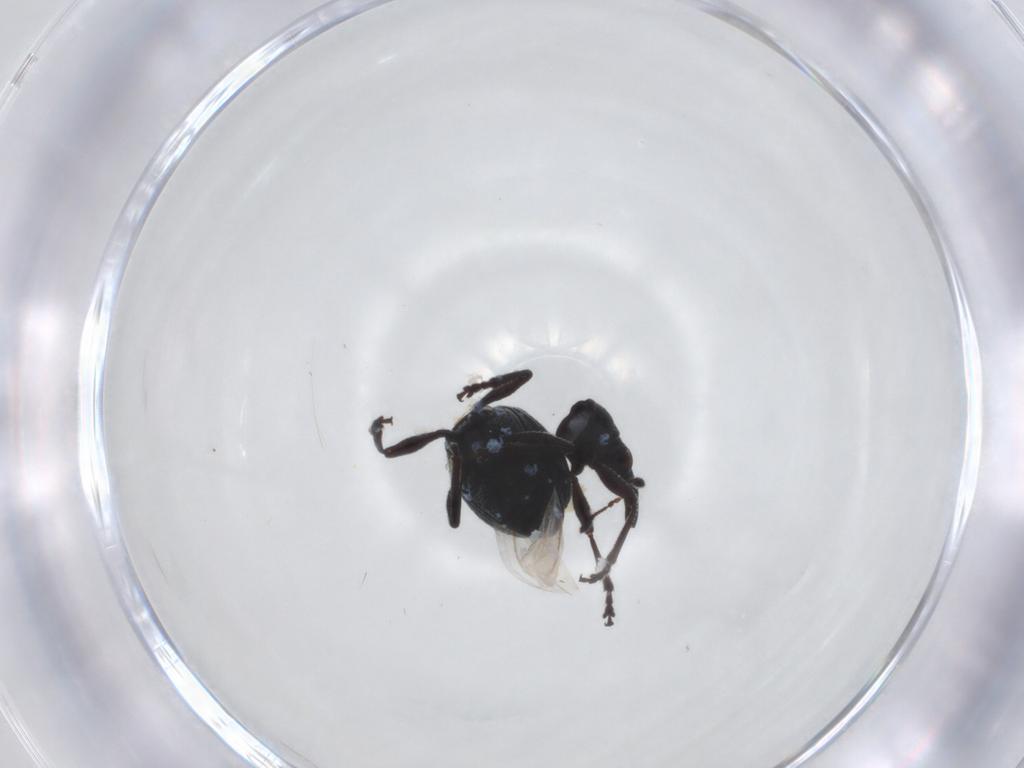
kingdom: Animalia
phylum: Arthropoda
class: Insecta
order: Coleoptera
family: Brentidae
